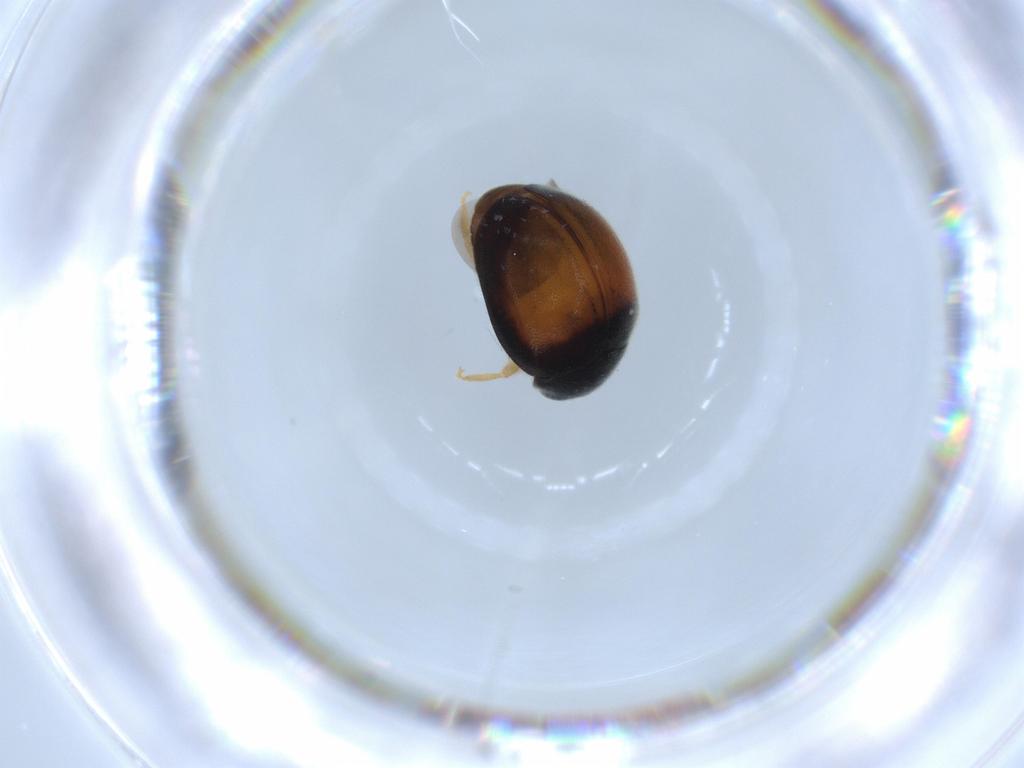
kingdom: Animalia
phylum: Arthropoda
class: Insecta
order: Coleoptera
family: Coccinellidae
